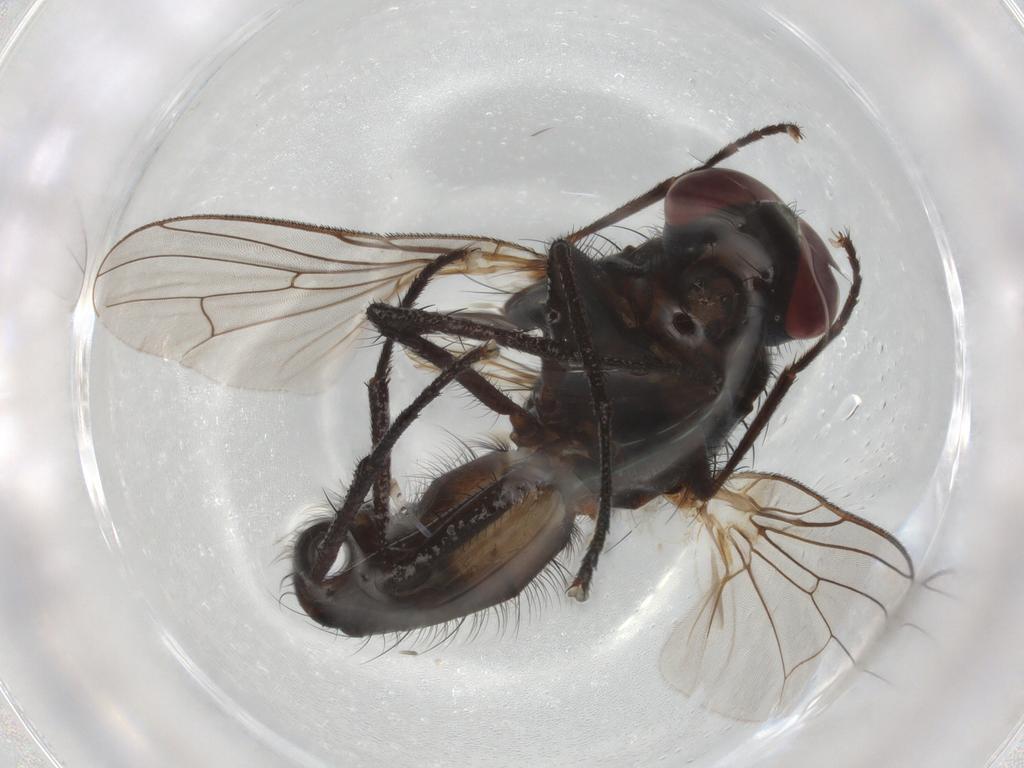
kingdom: Animalia
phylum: Arthropoda
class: Insecta
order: Diptera
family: Anthomyiidae
